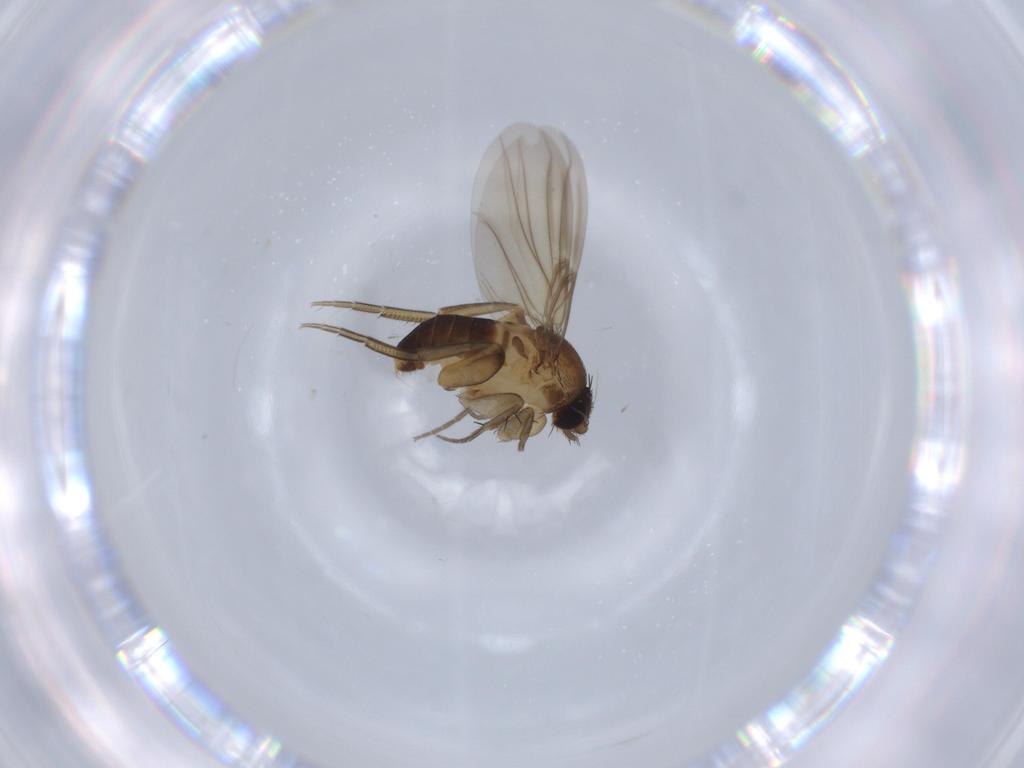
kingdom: Animalia
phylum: Arthropoda
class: Insecta
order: Diptera
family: Phoridae
